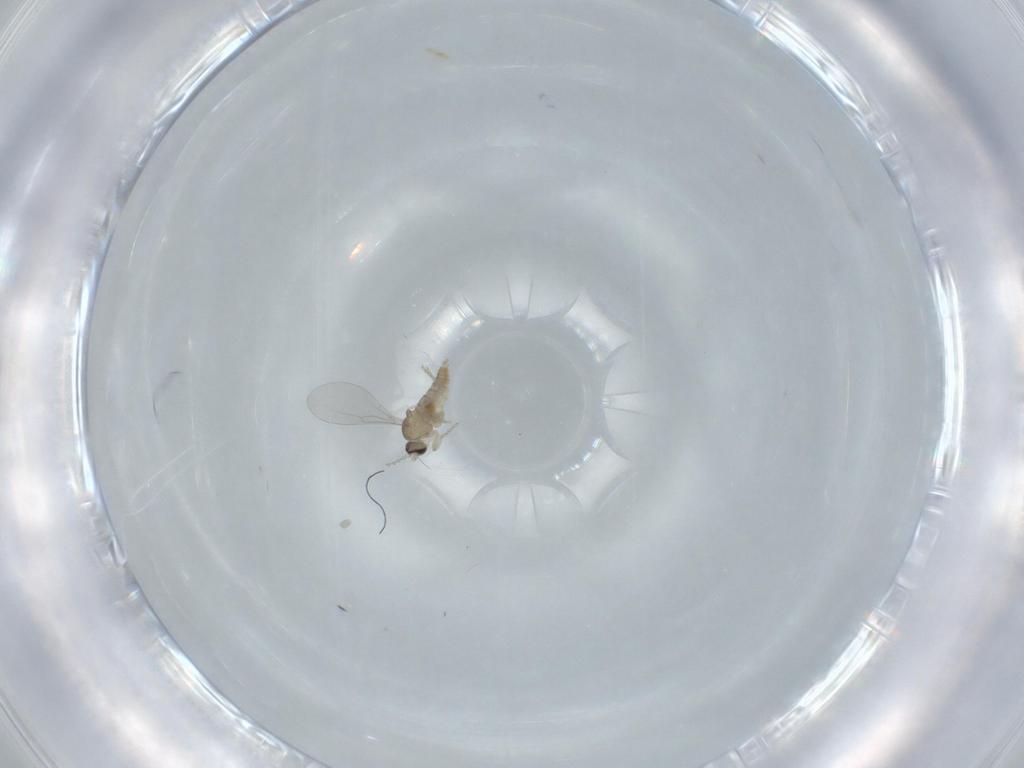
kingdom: Animalia
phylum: Arthropoda
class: Insecta
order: Diptera
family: Cecidomyiidae
